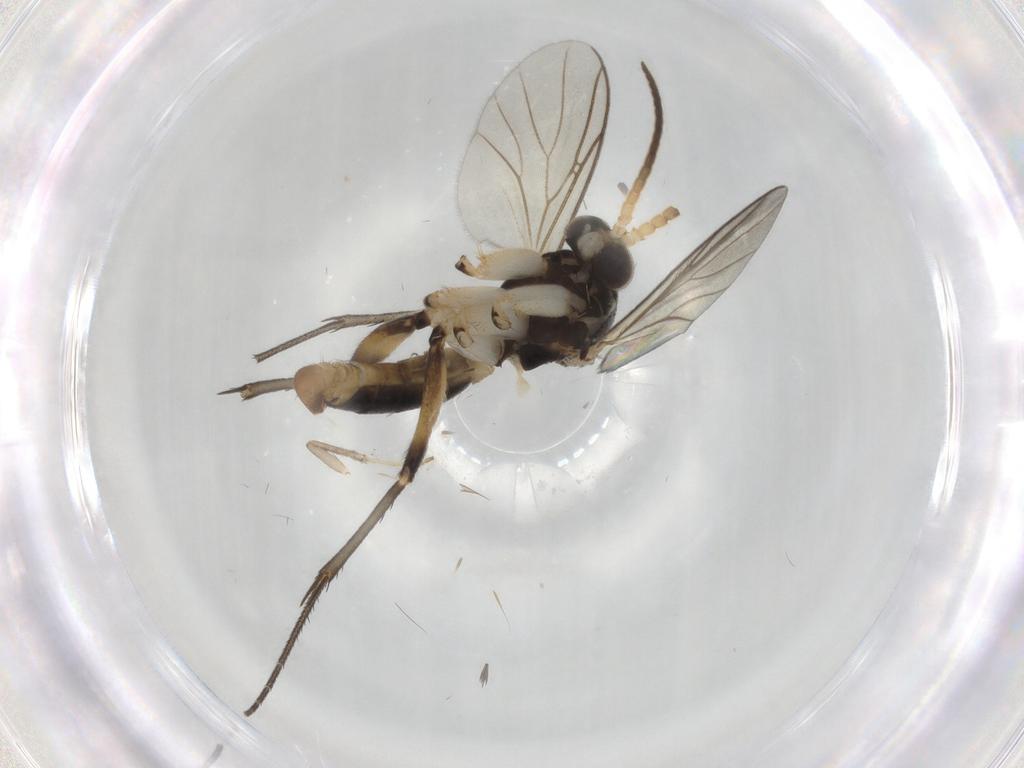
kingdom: Animalia
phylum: Arthropoda
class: Insecta
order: Diptera
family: Phoridae
